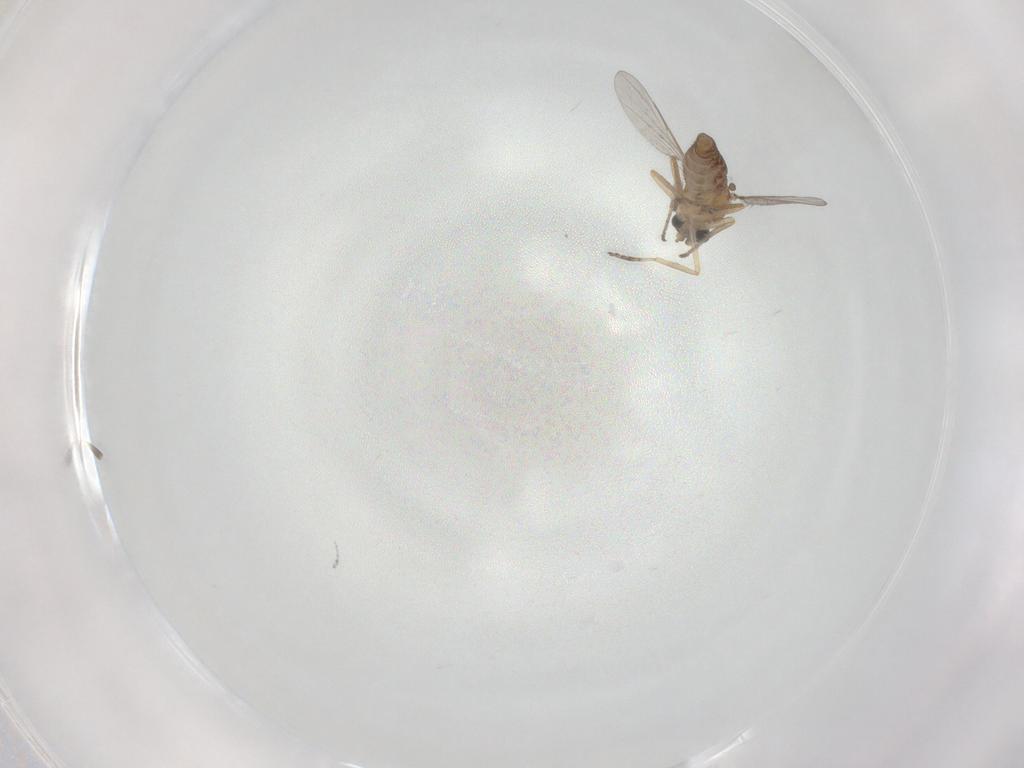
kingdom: Animalia
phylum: Arthropoda
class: Insecta
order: Diptera
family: Ceratopogonidae
